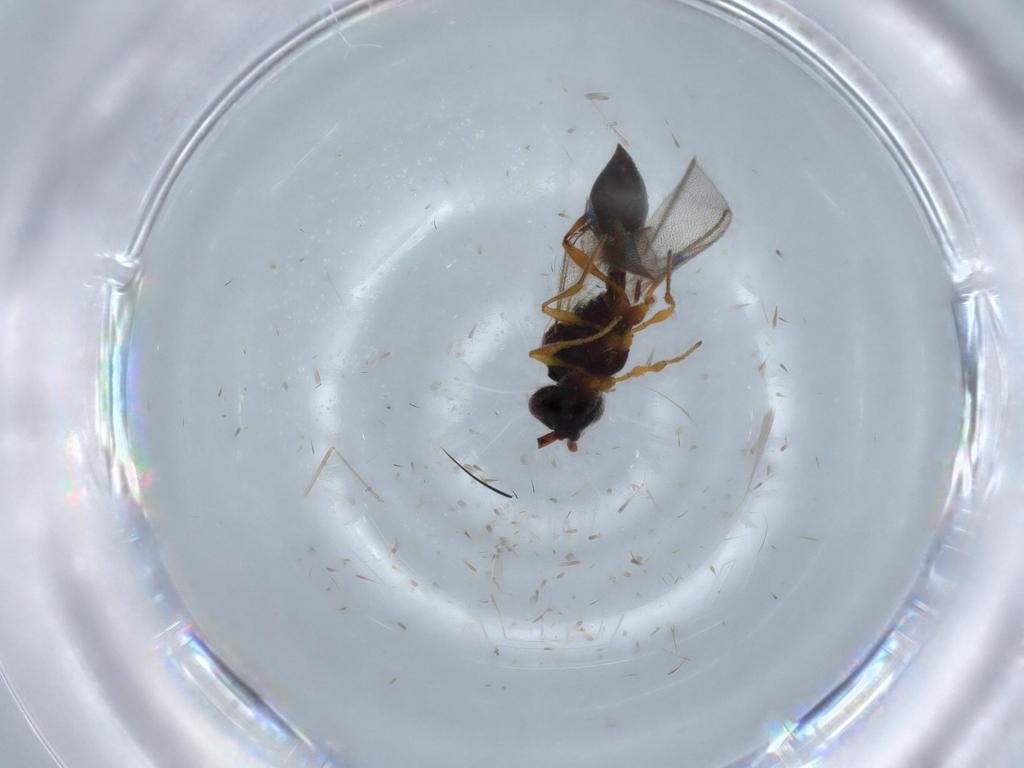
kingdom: Animalia
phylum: Arthropoda
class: Insecta
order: Diptera
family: Mycetophilidae
